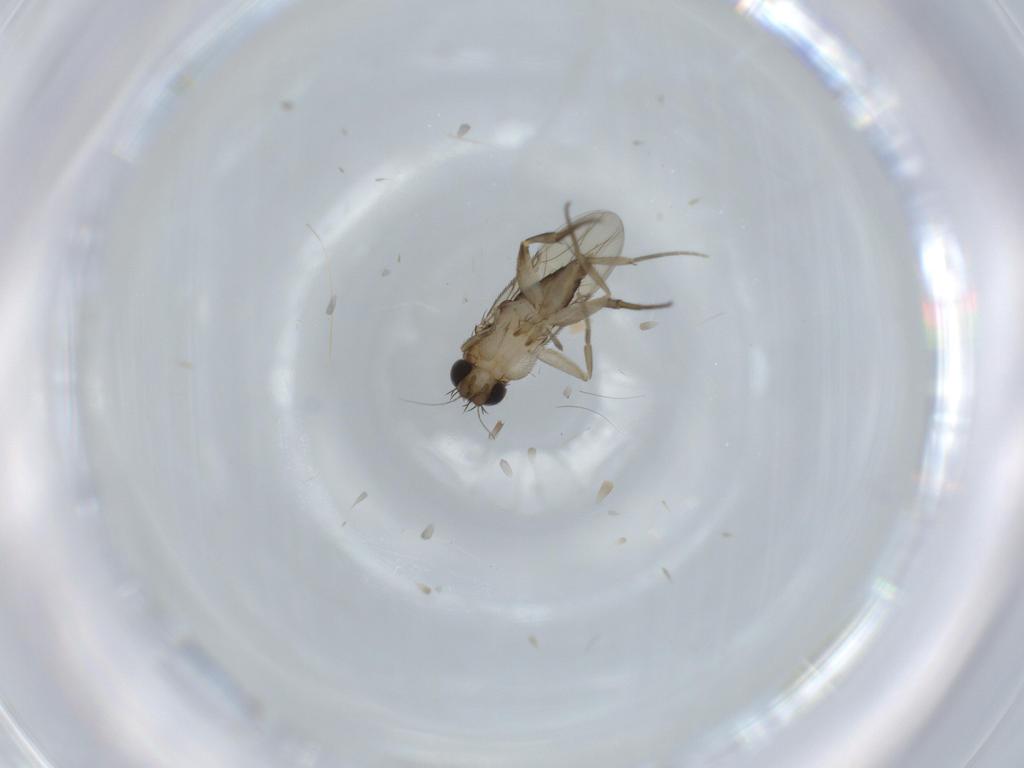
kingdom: Animalia
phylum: Arthropoda
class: Insecta
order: Diptera
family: Phoridae
